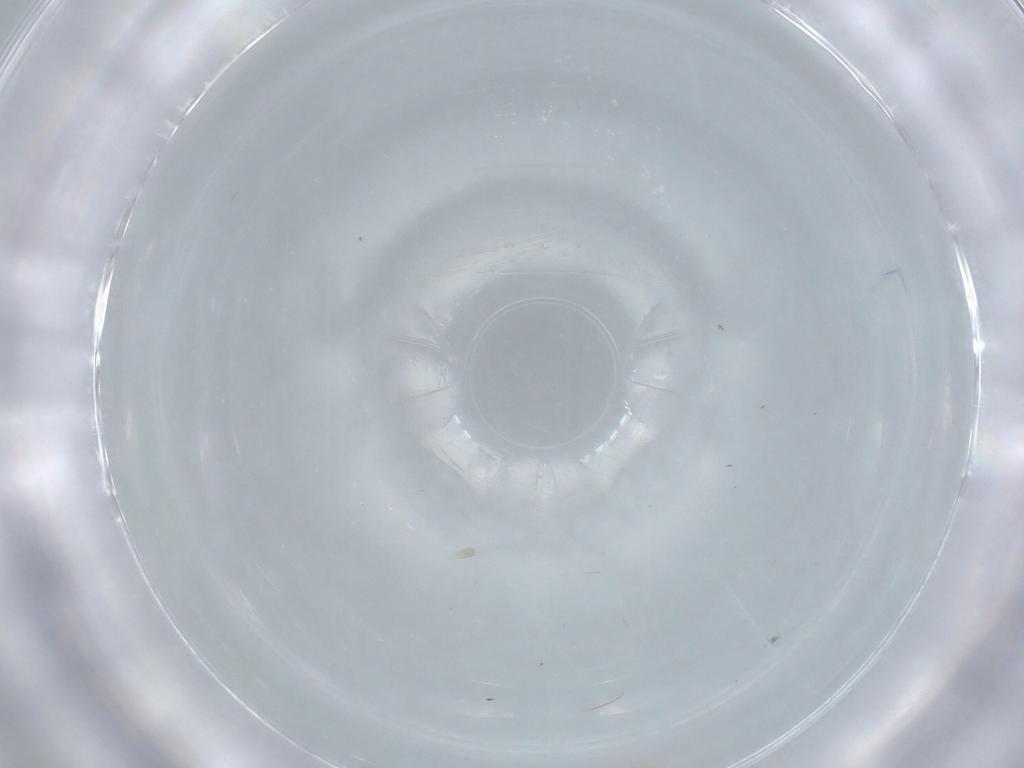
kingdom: Animalia
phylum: Arthropoda
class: Insecta
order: Diptera
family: Cecidomyiidae
